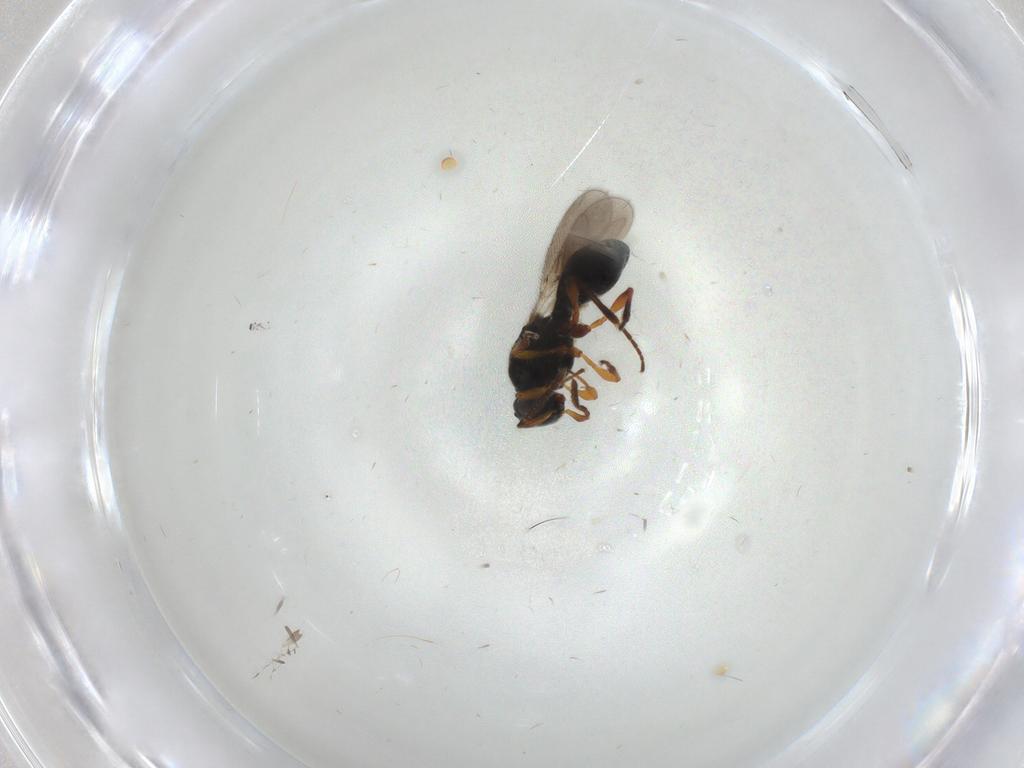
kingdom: Animalia
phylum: Arthropoda
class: Insecta
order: Hymenoptera
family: Platygastridae
